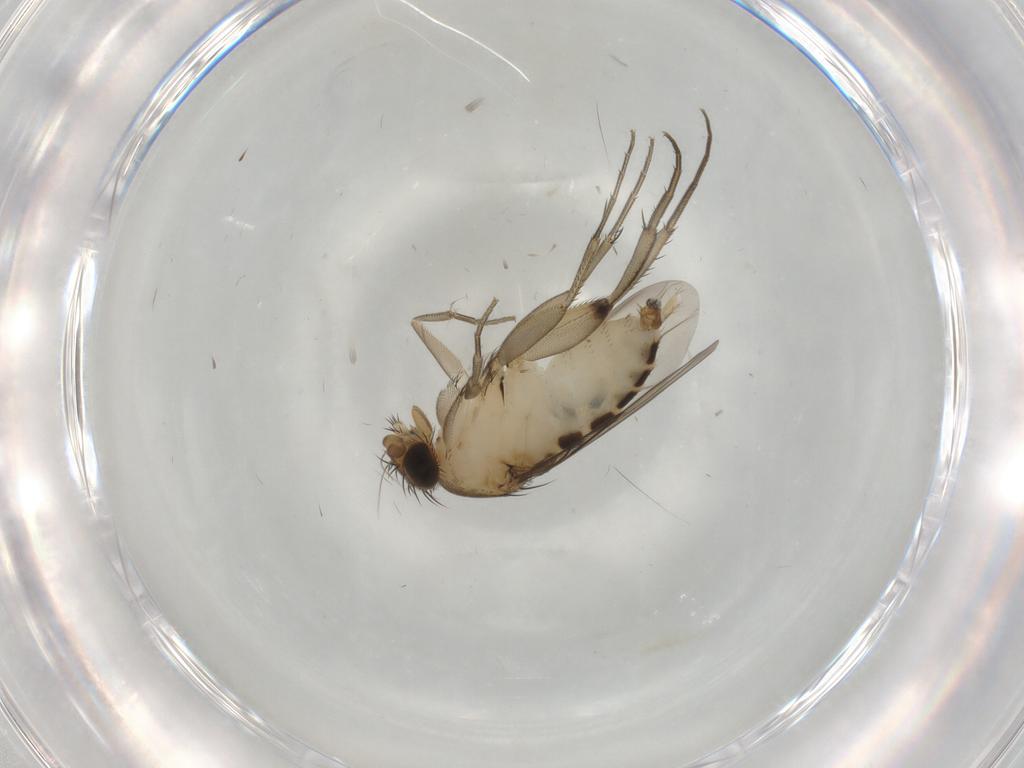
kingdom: Animalia
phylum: Arthropoda
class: Insecta
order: Diptera
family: Phoridae
